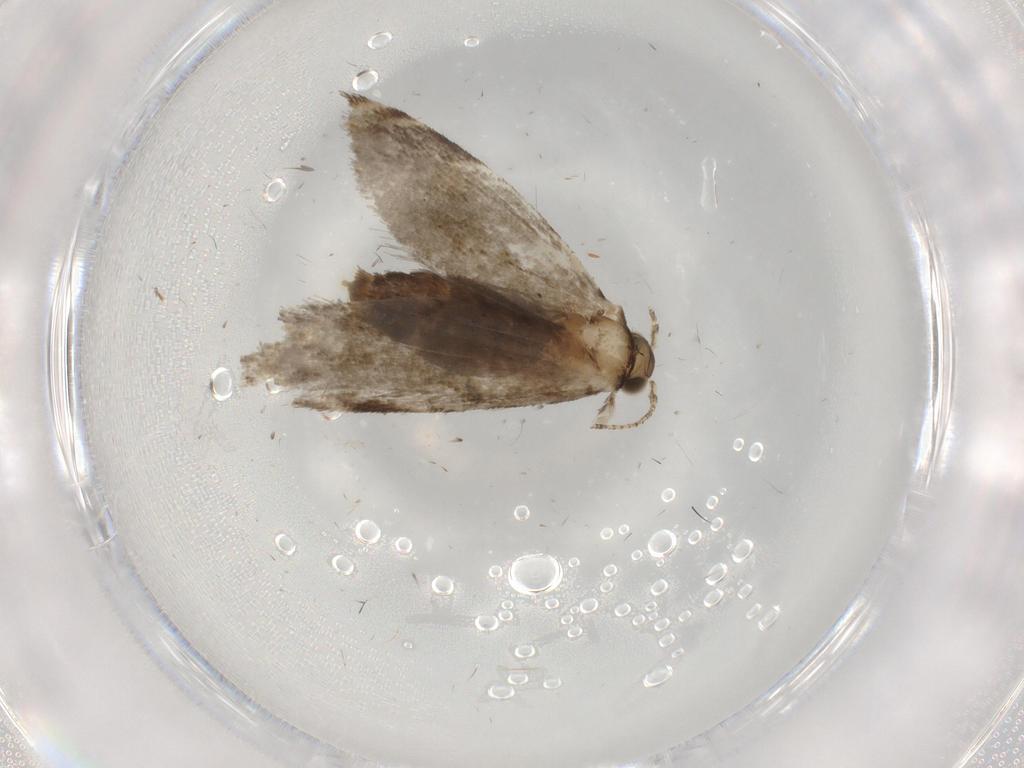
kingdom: Animalia
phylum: Arthropoda
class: Insecta
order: Lepidoptera
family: Tineidae
